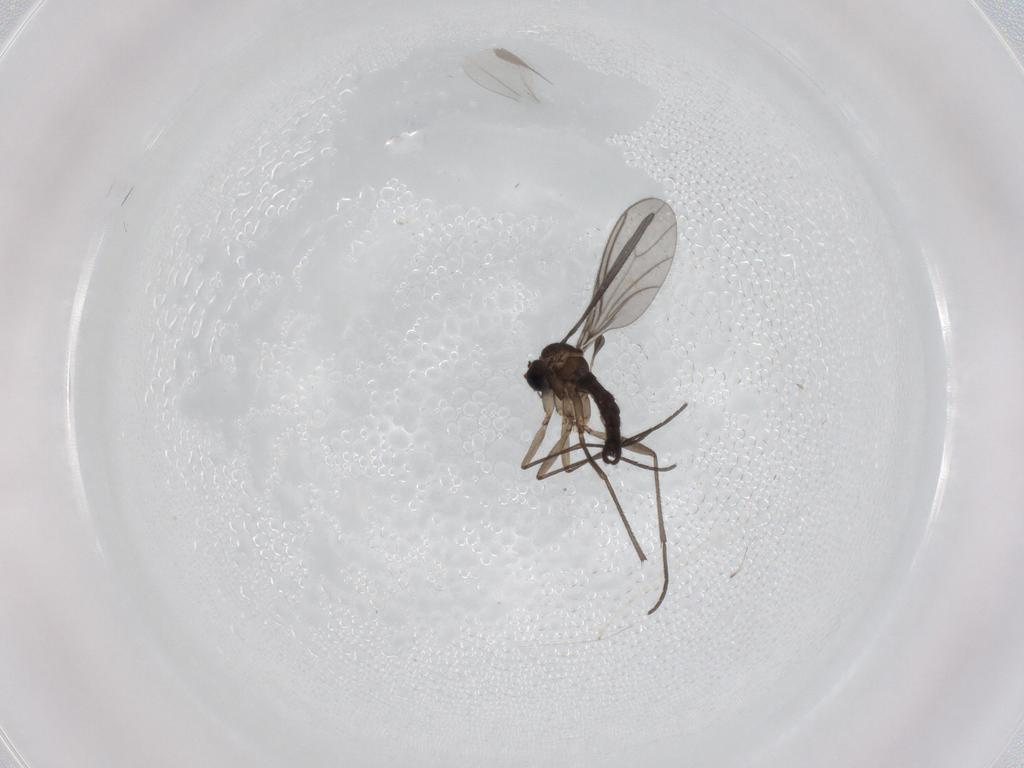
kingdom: Animalia
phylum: Arthropoda
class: Insecta
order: Diptera
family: Sciaridae
